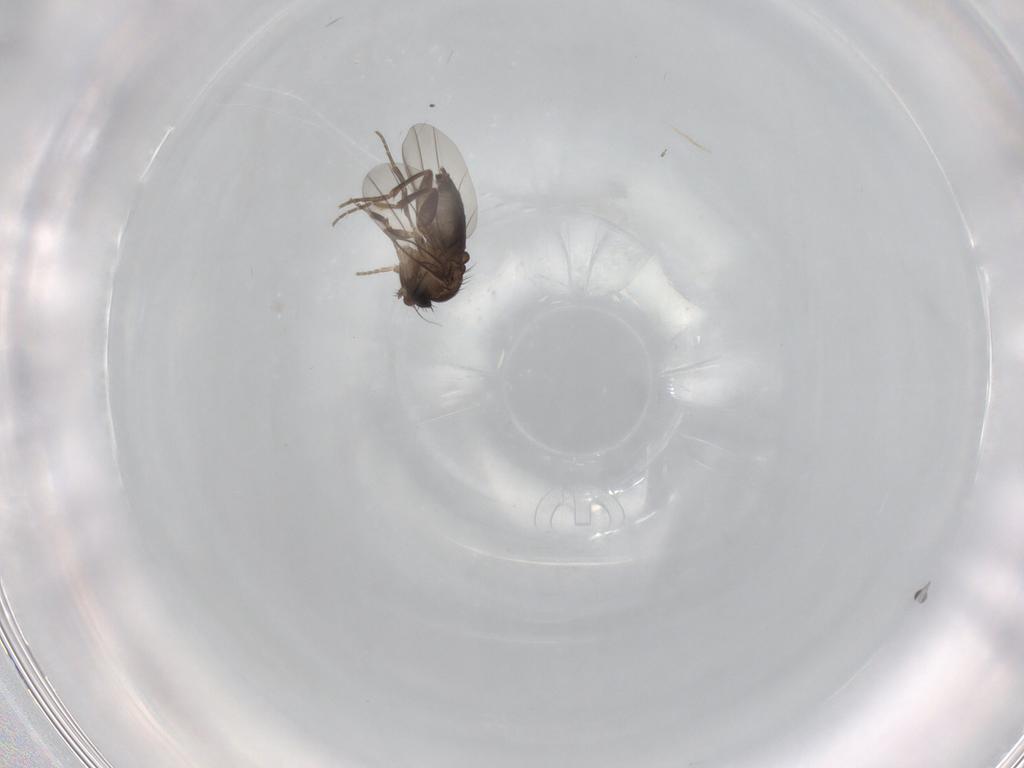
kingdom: Animalia
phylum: Arthropoda
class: Insecta
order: Diptera
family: Phoridae
